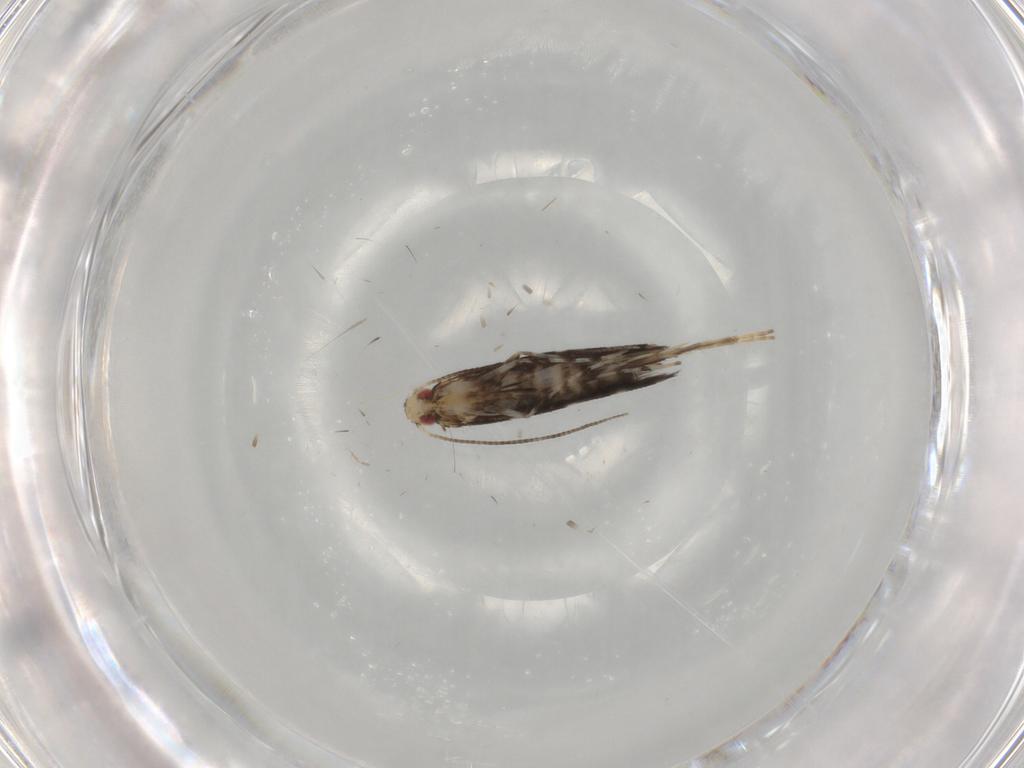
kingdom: Animalia
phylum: Arthropoda
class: Insecta
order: Lepidoptera
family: Gracillariidae
